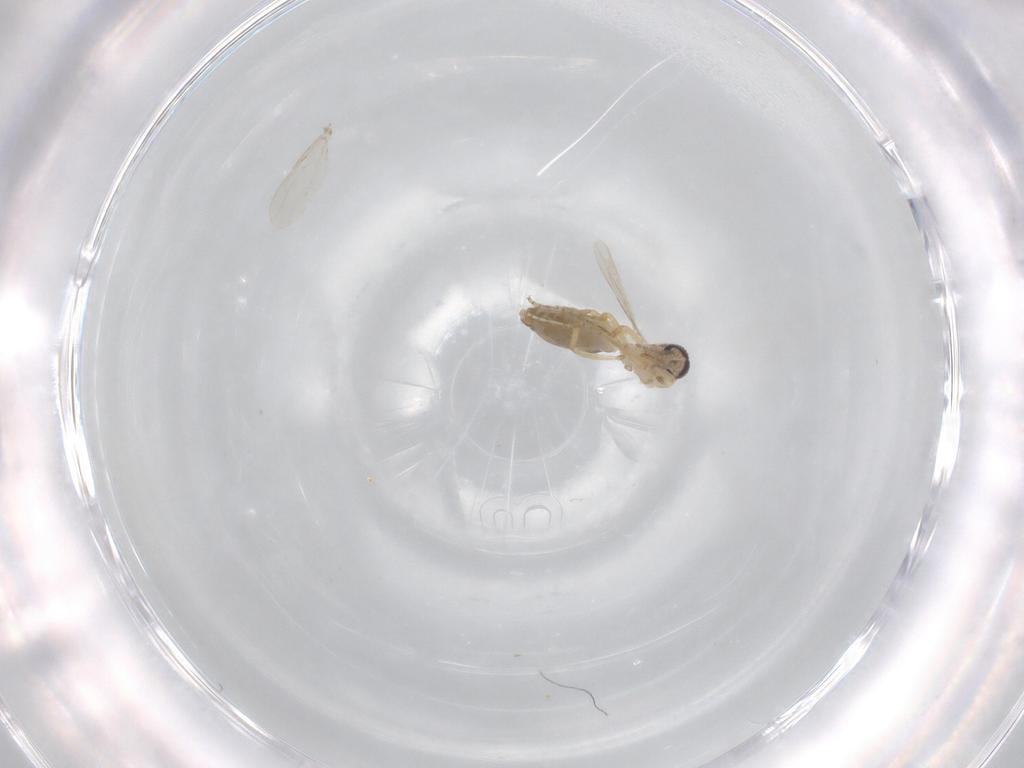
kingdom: Animalia
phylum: Arthropoda
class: Insecta
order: Diptera
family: Ceratopogonidae
